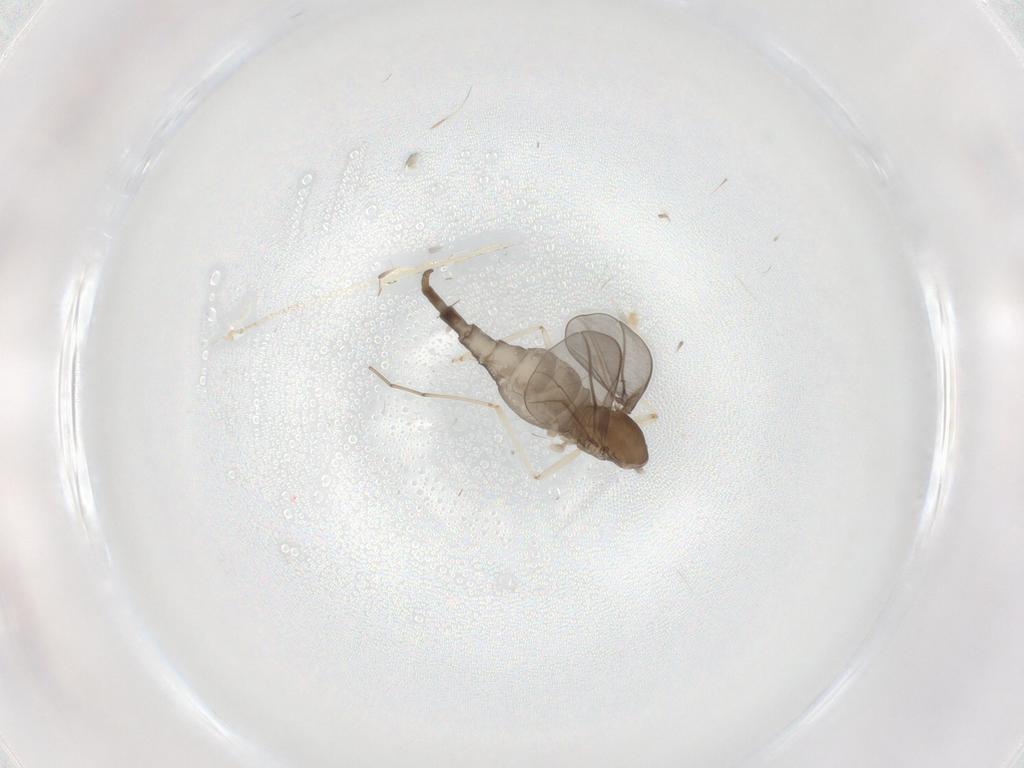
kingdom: Animalia
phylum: Arthropoda
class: Insecta
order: Diptera
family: Cecidomyiidae
